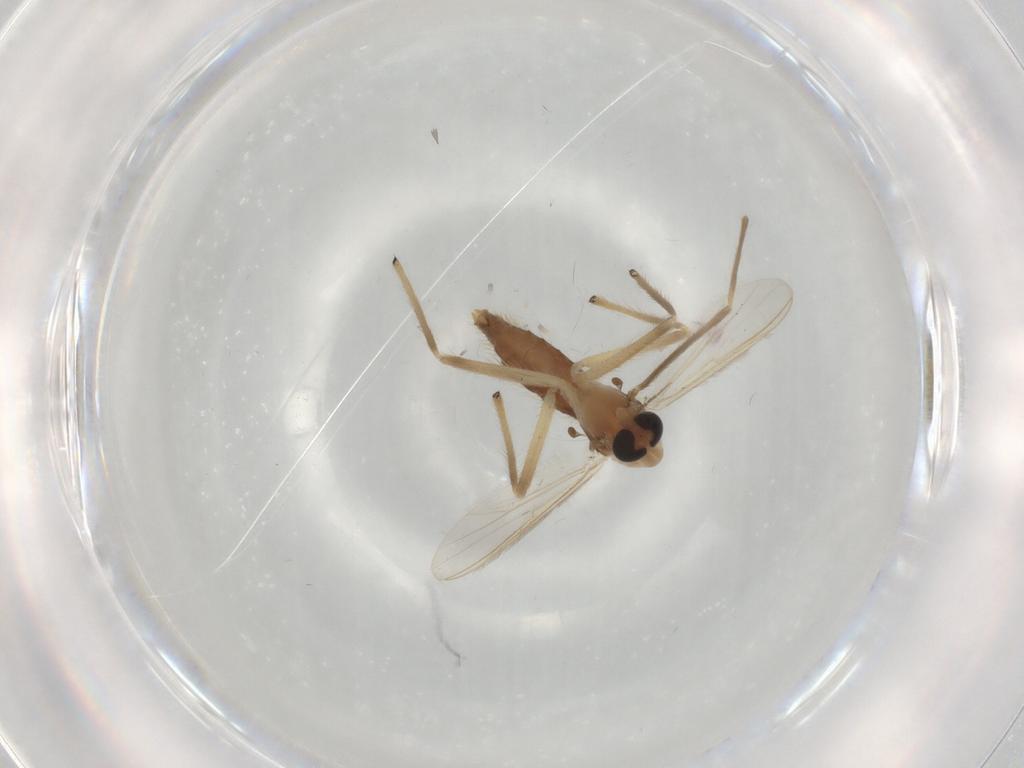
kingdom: Animalia
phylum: Arthropoda
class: Insecta
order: Diptera
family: Chironomidae
